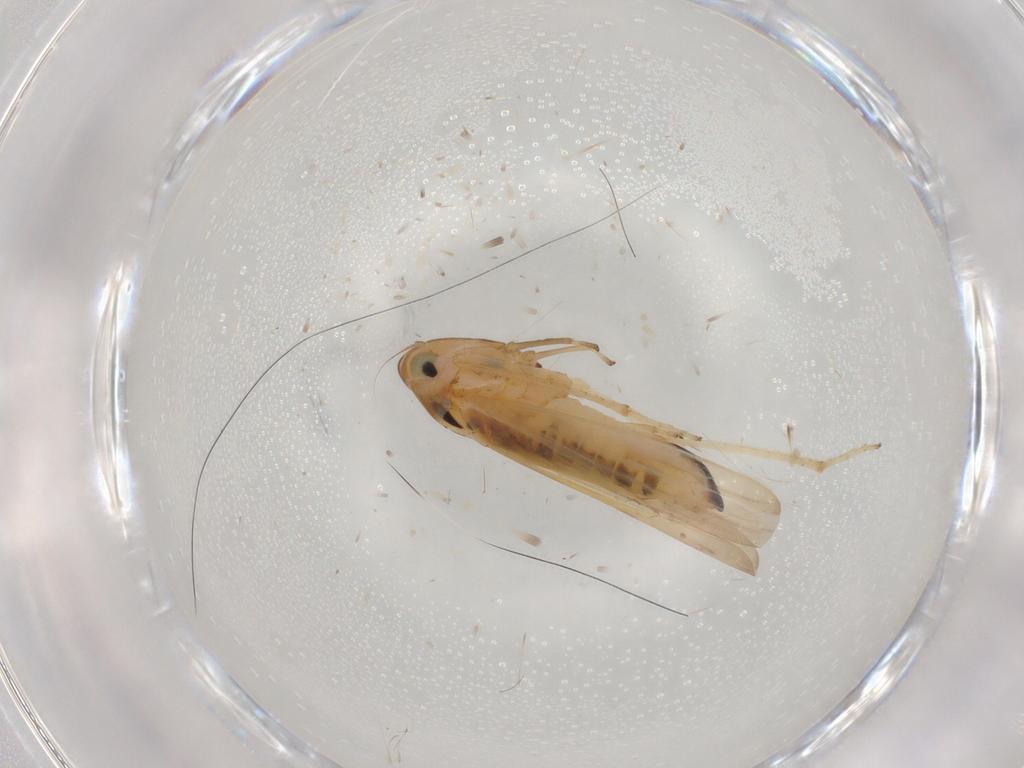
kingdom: Animalia
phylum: Arthropoda
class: Insecta
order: Hemiptera
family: Cicadellidae
